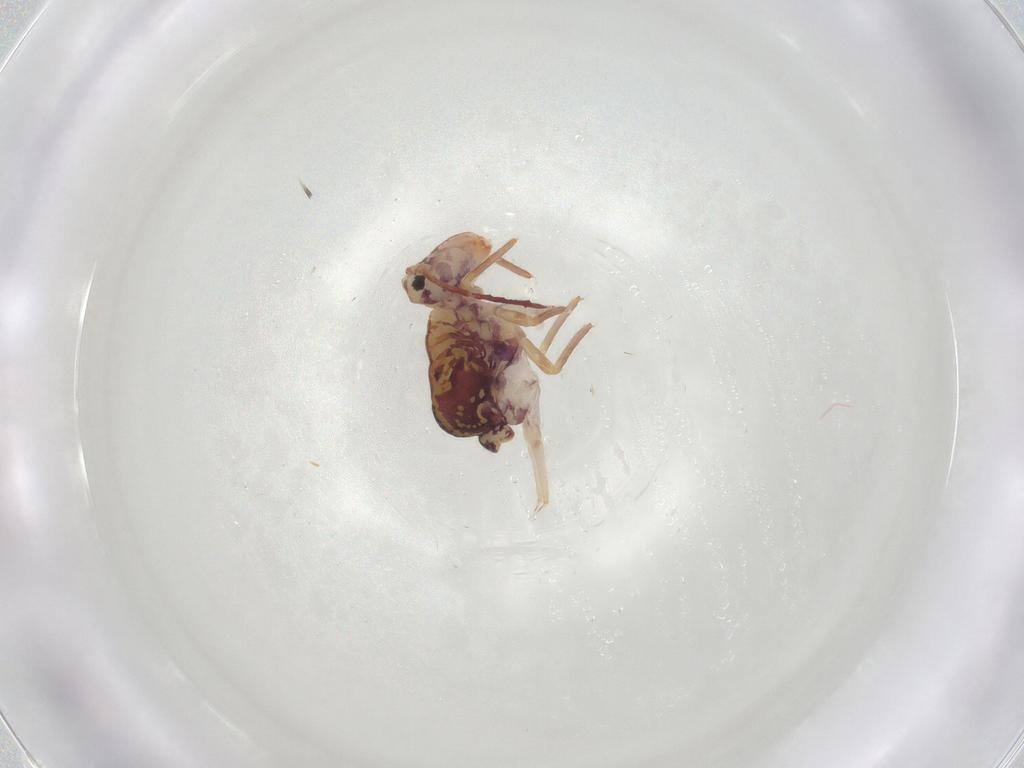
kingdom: Animalia
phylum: Arthropoda
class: Collembola
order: Symphypleona
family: Dicyrtomidae
